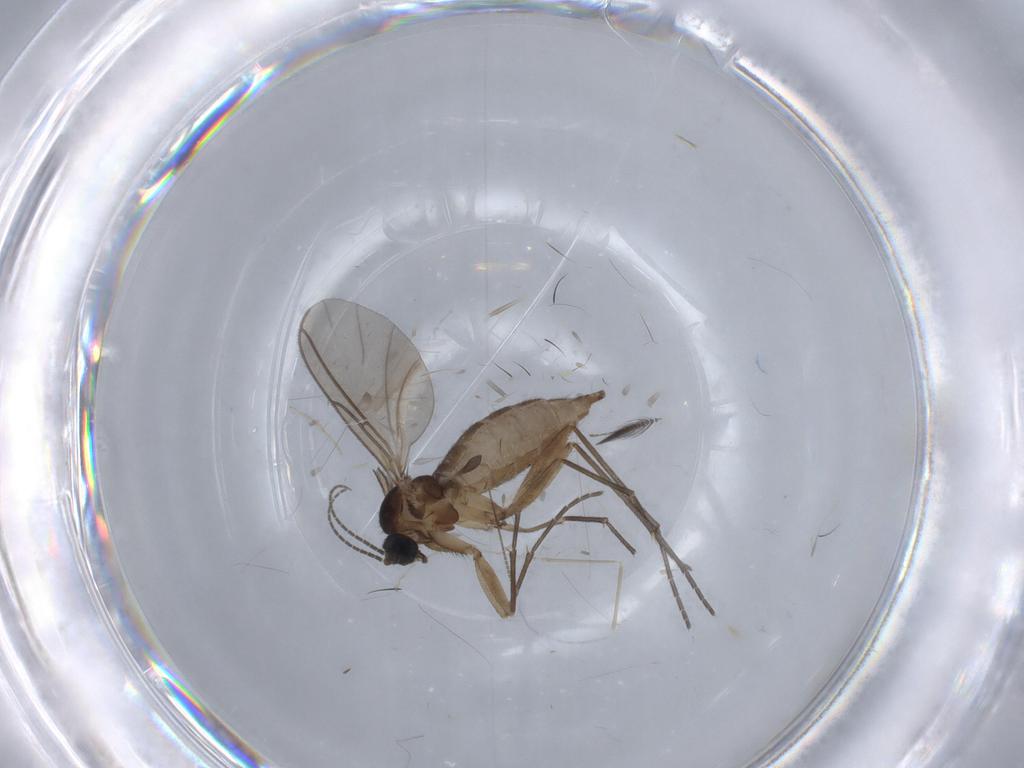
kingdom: Animalia
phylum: Arthropoda
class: Insecta
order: Diptera
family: Sciaridae
